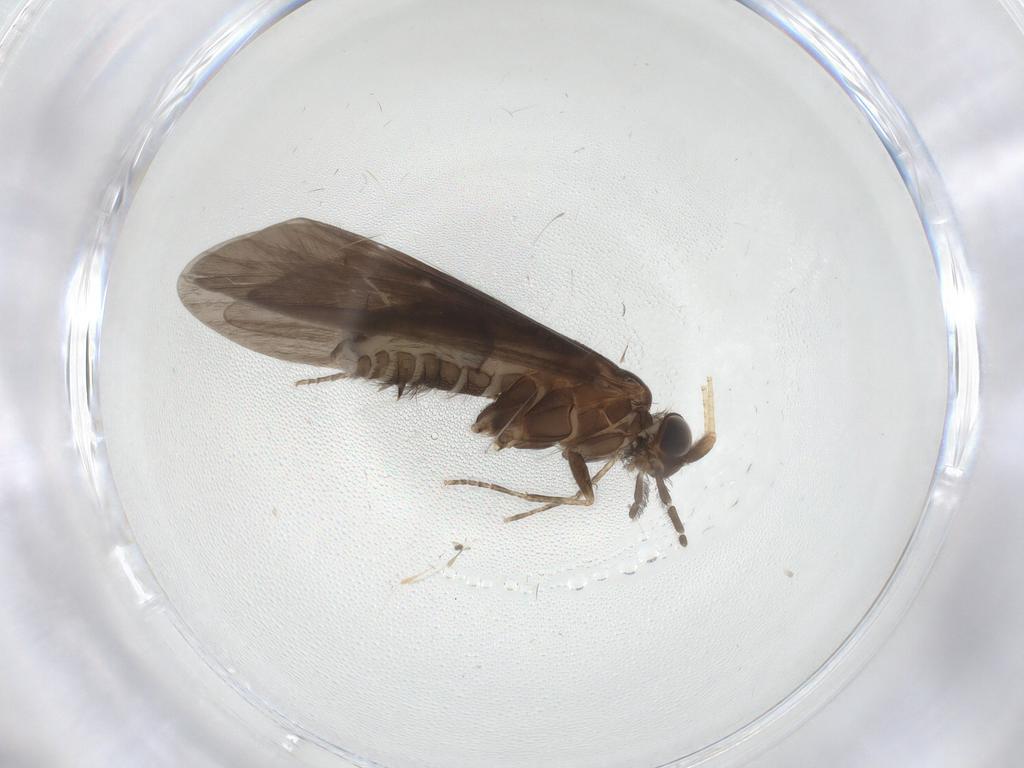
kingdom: Animalia
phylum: Arthropoda
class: Insecta
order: Trichoptera
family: Helicopsychidae
